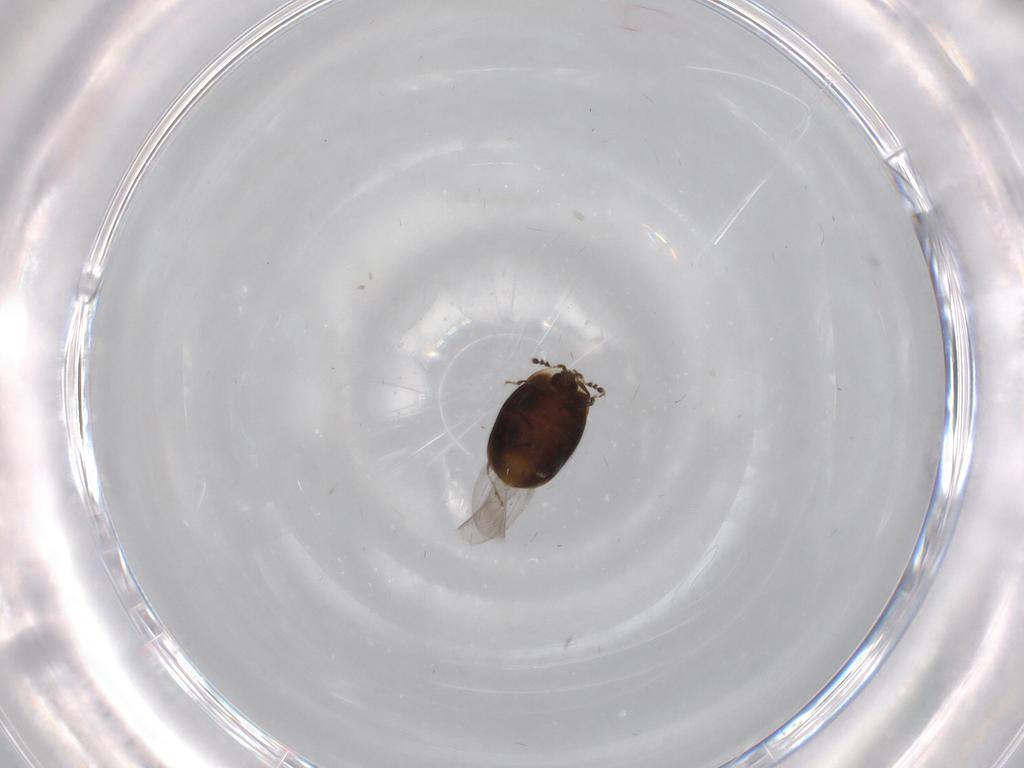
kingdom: Animalia
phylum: Arthropoda
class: Insecta
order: Coleoptera
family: Corylophidae
